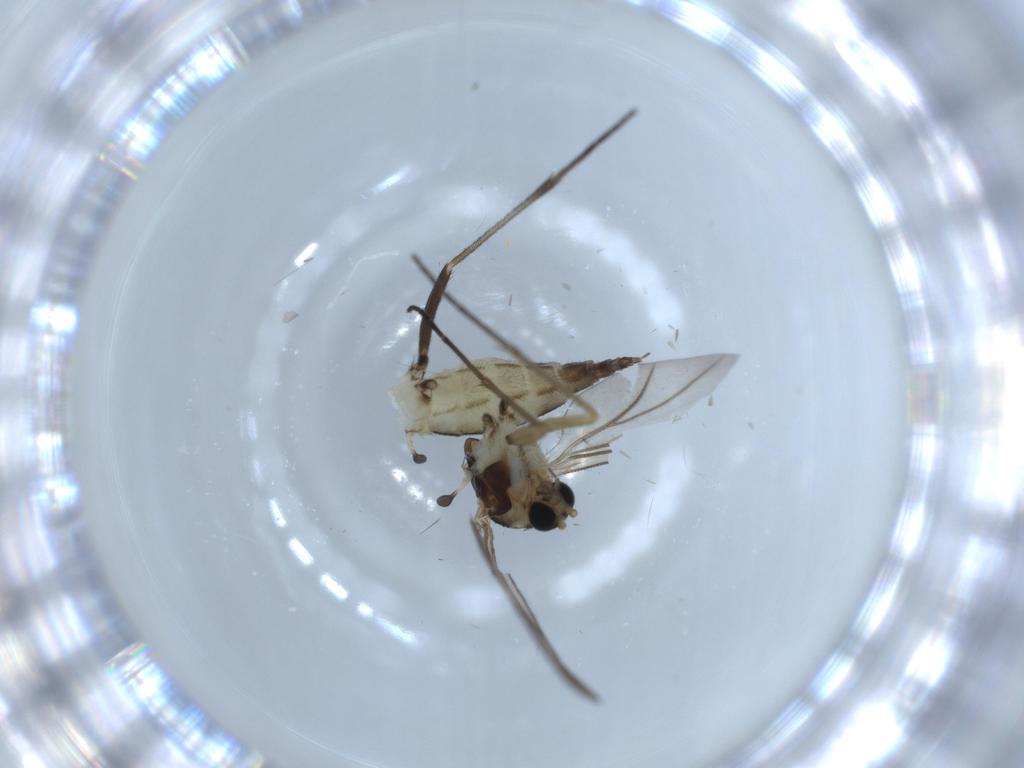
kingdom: Animalia
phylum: Arthropoda
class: Insecta
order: Diptera
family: Sciaridae
